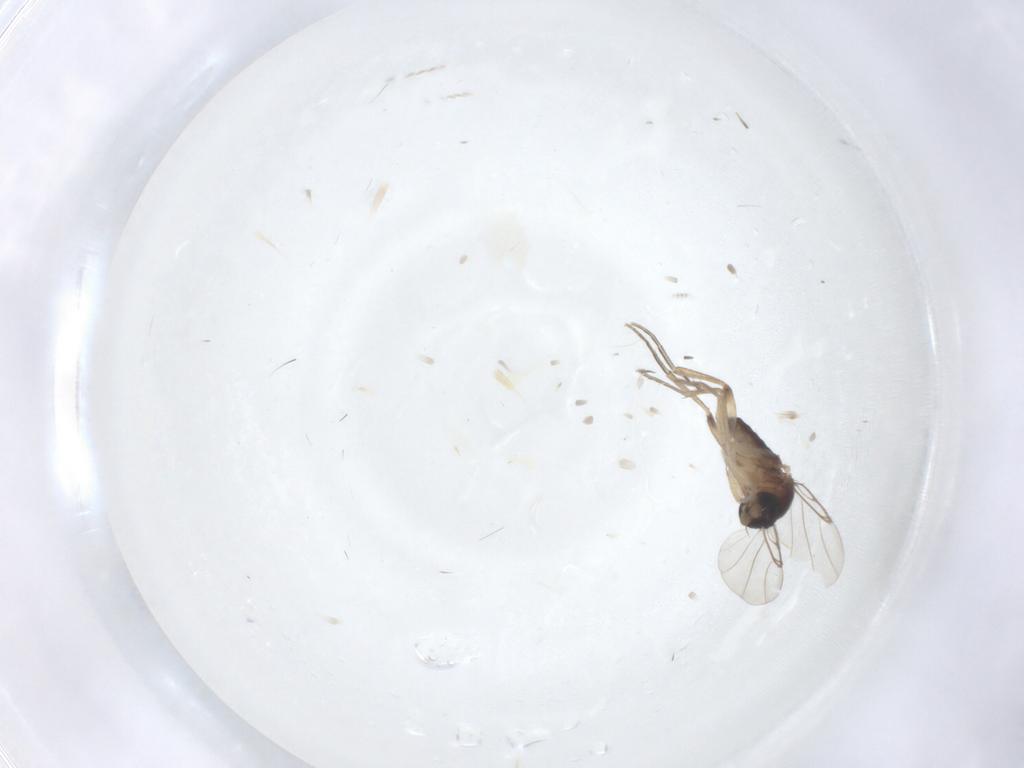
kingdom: Animalia
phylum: Arthropoda
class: Insecta
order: Diptera
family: Phoridae
